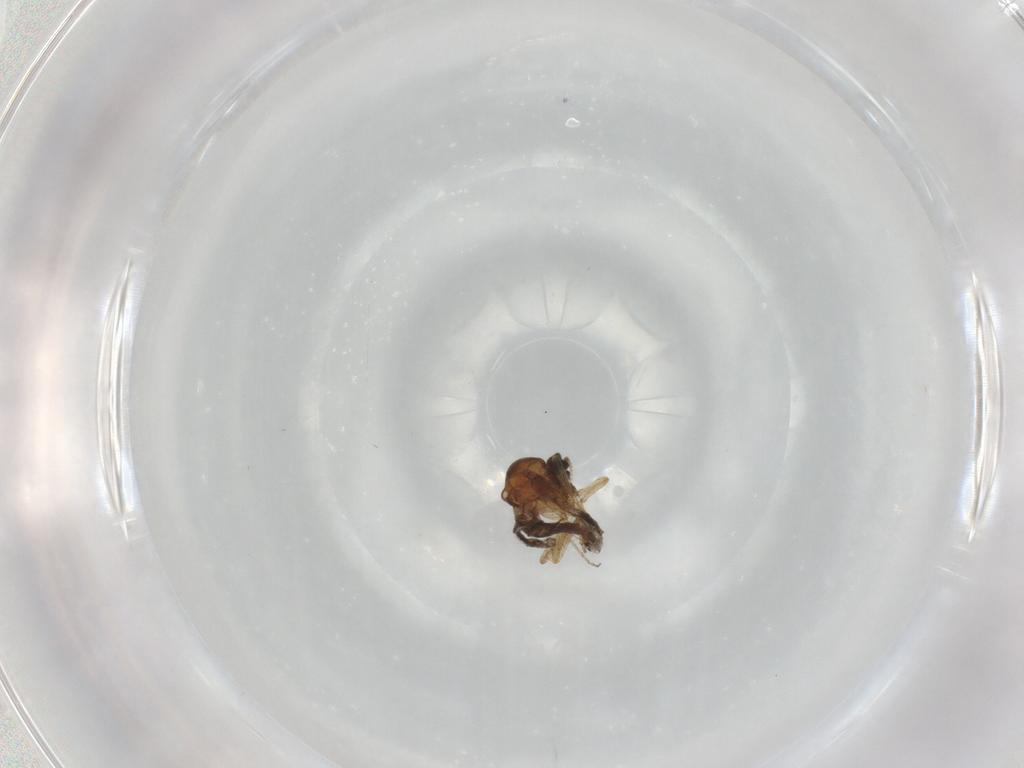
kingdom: Animalia
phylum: Arthropoda
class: Insecta
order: Diptera
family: Ceratopogonidae
